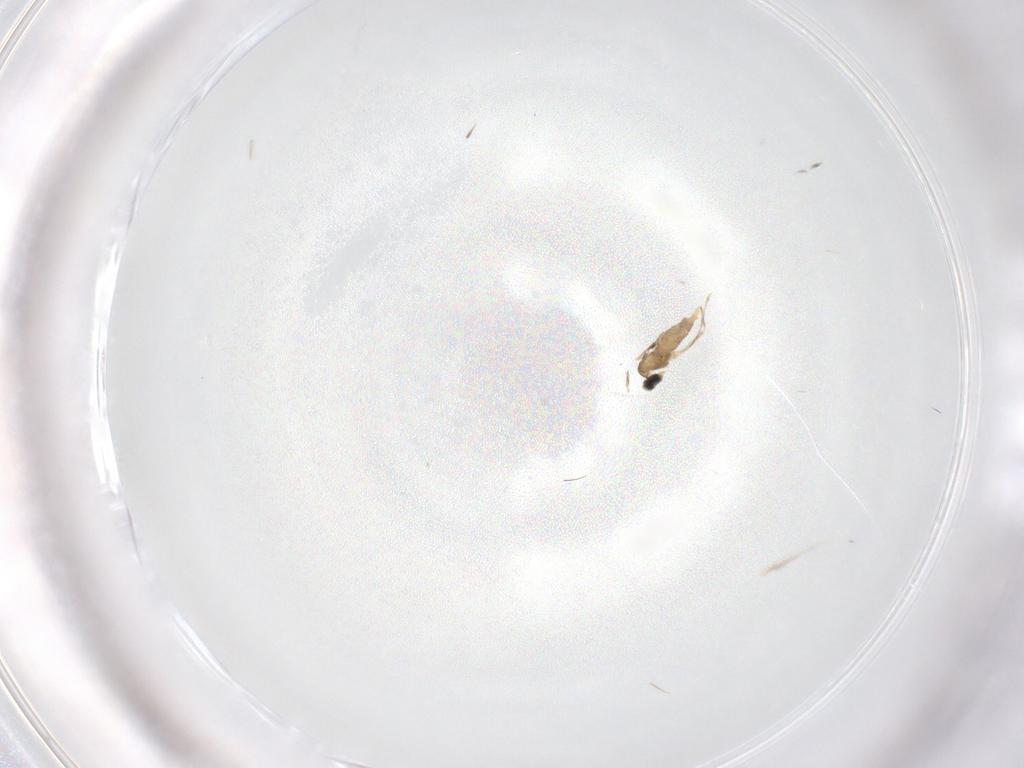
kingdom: Animalia
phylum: Arthropoda
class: Insecta
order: Diptera
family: Cecidomyiidae
